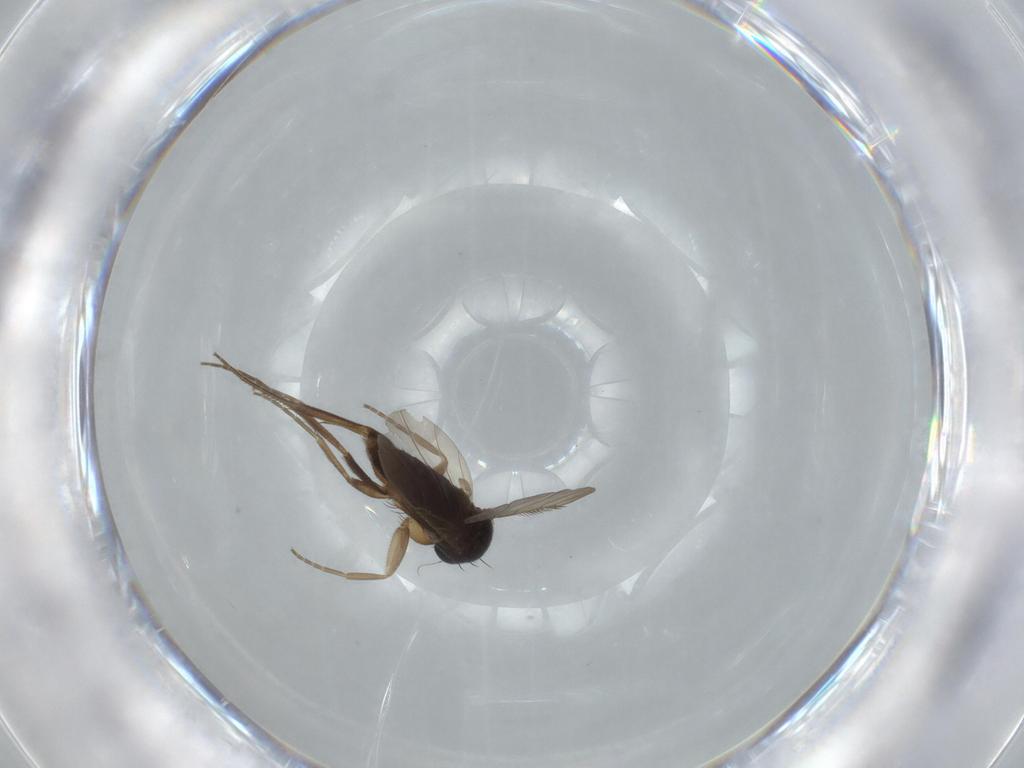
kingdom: Animalia
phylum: Arthropoda
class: Insecta
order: Diptera
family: Phoridae
